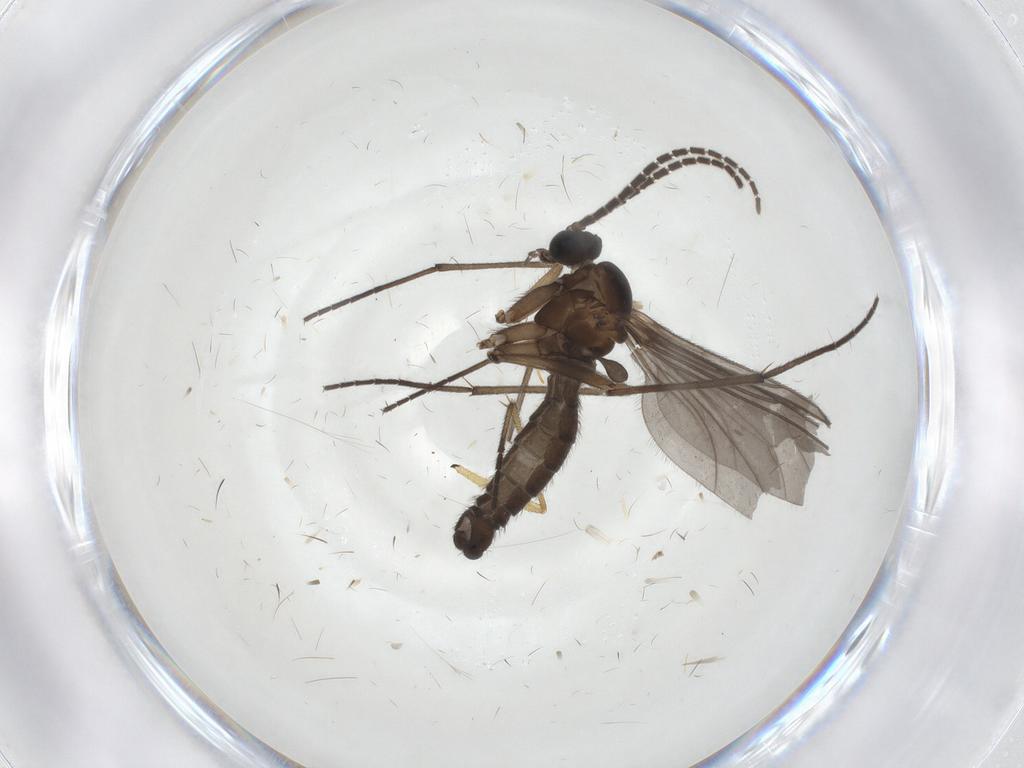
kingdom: Animalia
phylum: Arthropoda
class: Insecta
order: Diptera
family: Sciaridae
